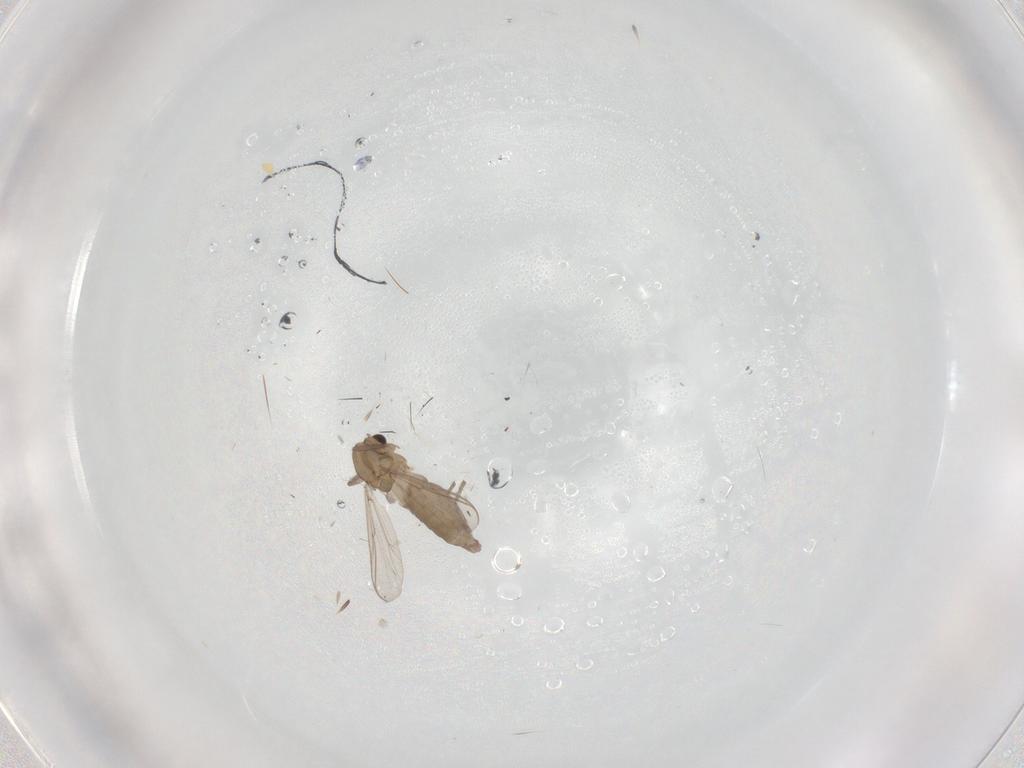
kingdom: Animalia
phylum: Arthropoda
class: Insecta
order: Diptera
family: Chironomidae
